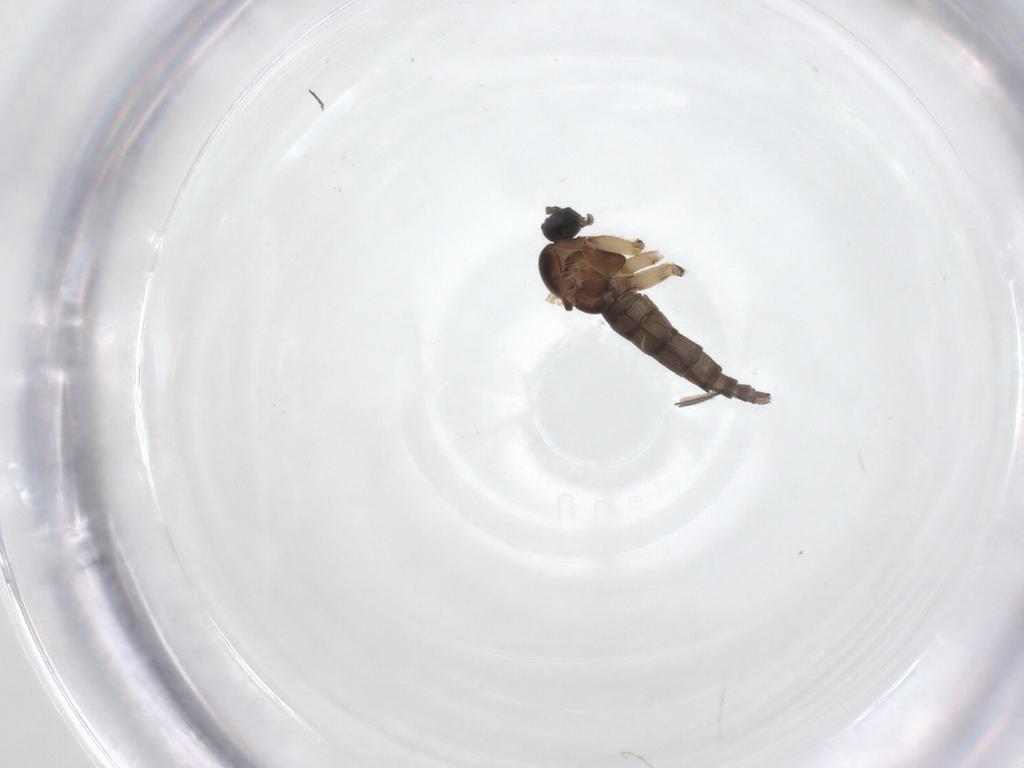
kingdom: Animalia
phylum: Arthropoda
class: Insecta
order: Diptera
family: Sciaridae
